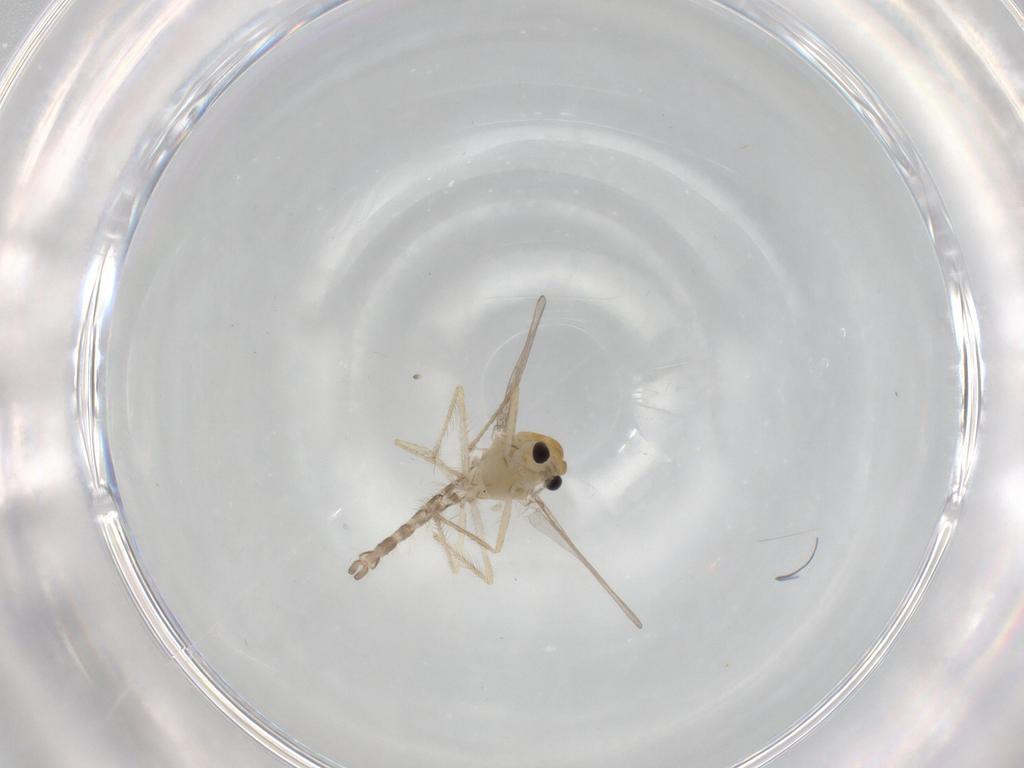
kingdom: Animalia
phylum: Arthropoda
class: Insecta
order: Diptera
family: Chironomidae
